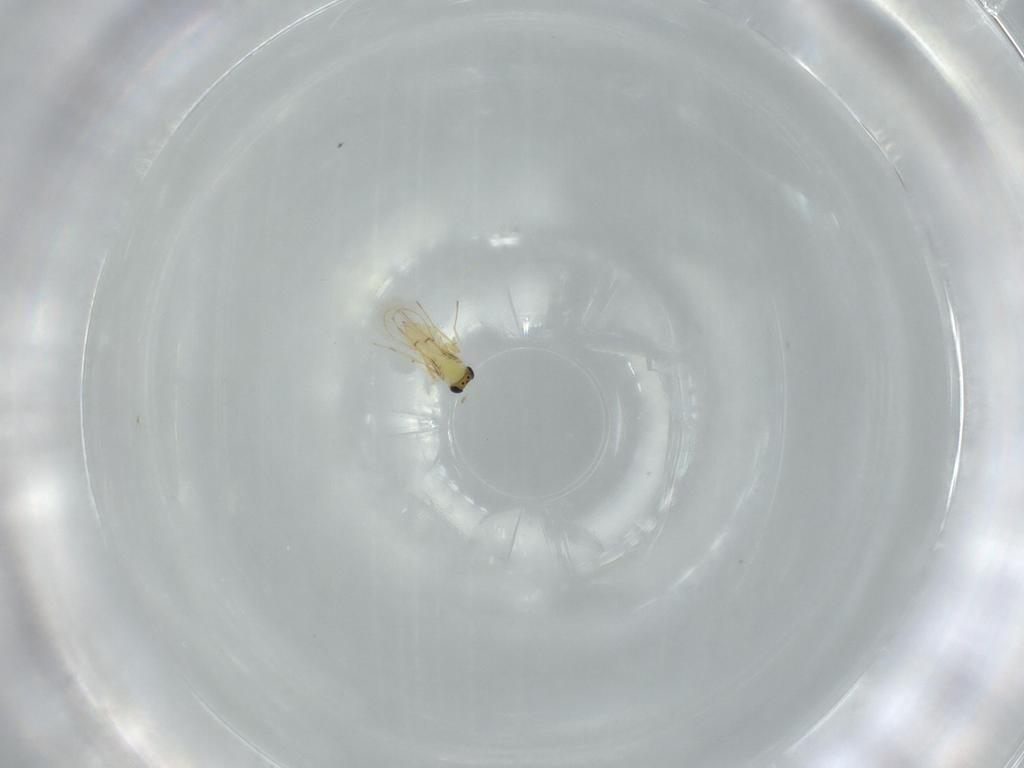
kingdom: Animalia
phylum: Arthropoda
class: Insecta
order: Hymenoptera
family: Trichogrammatidae
